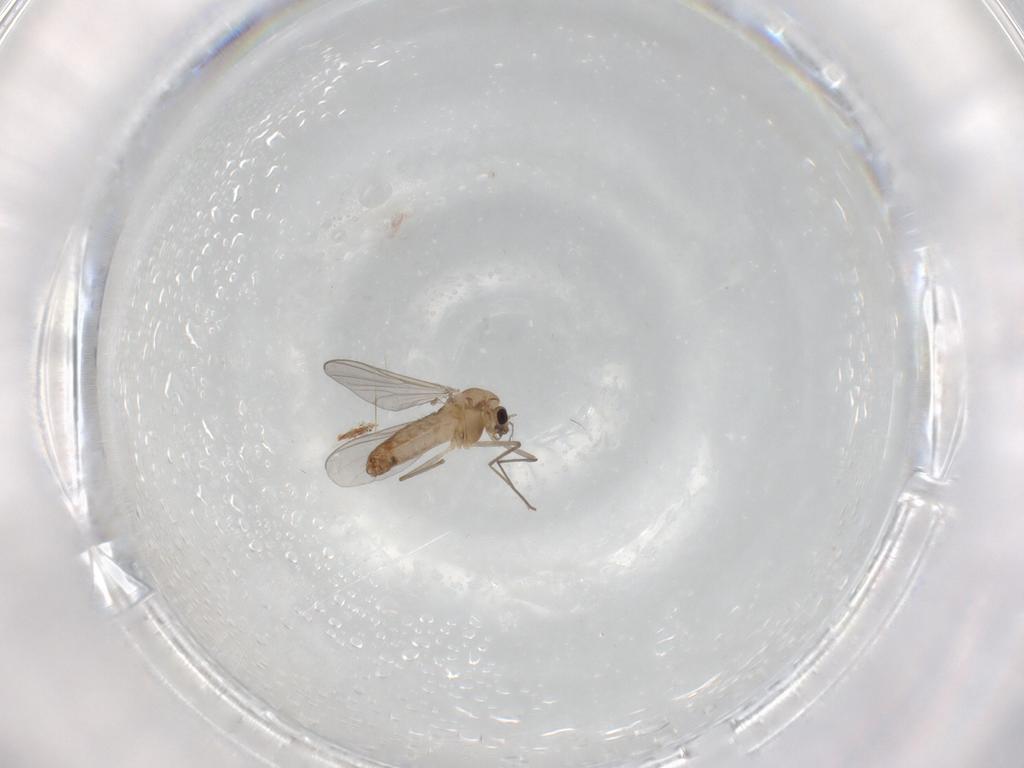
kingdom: Animalia
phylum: Arthropoda
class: Insecta
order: Diptera
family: Chironomidae
